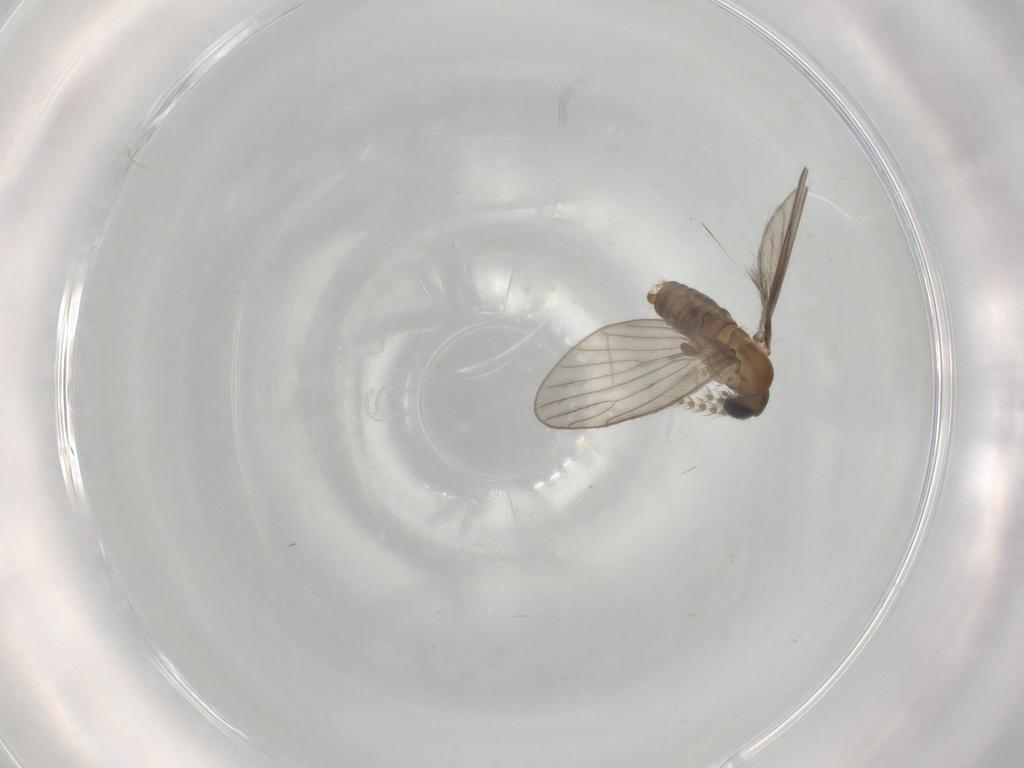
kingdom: Animalia
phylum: Arthropoda
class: Insecta
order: Diptera
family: Psychodidae
